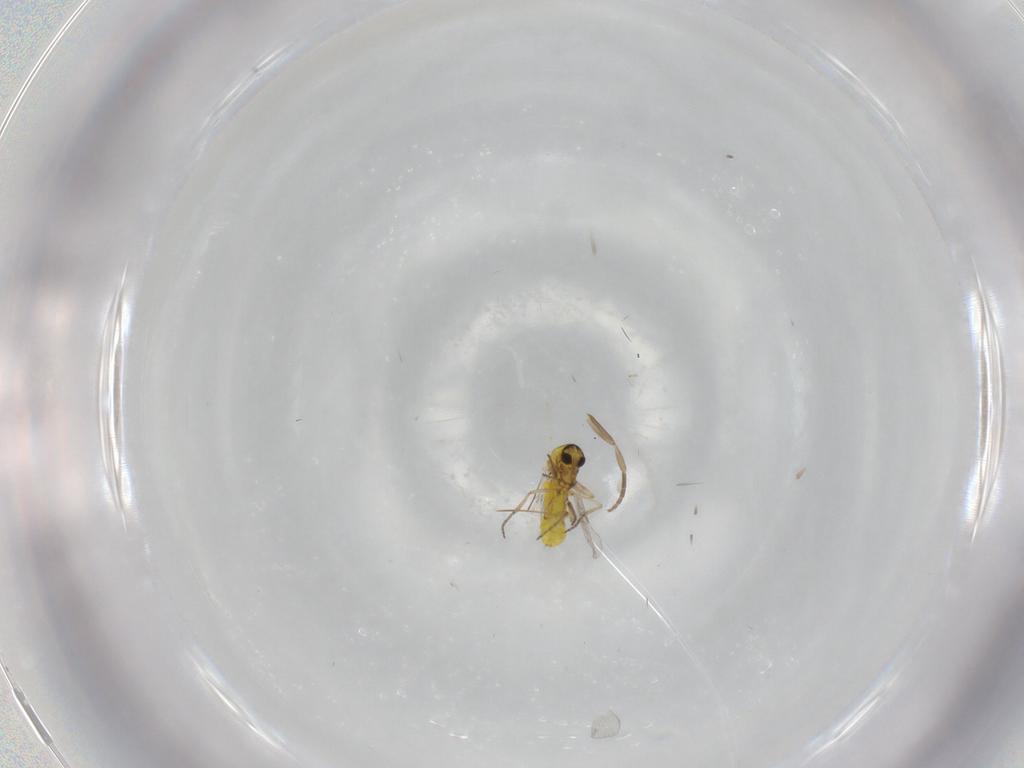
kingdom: Animalia
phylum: Arthropoda
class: Insecta
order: Diptera
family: Ceratopogonidae
